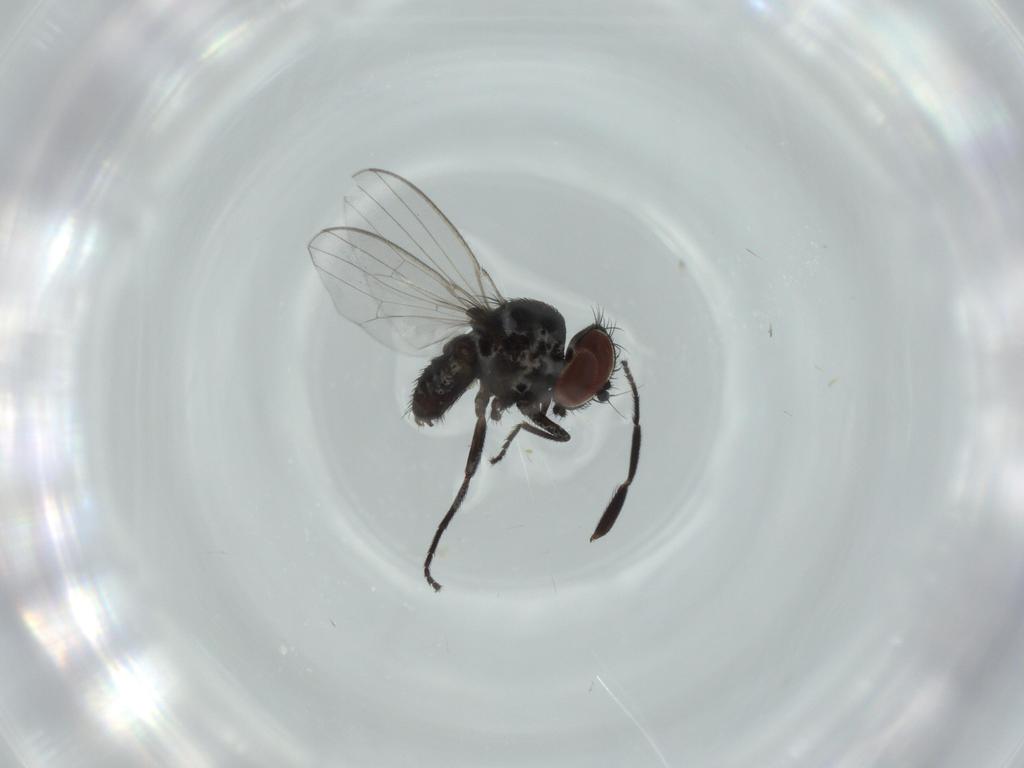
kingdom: Animalia
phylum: Arthropoda
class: Insecta
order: Diptera
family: Milichiidae
